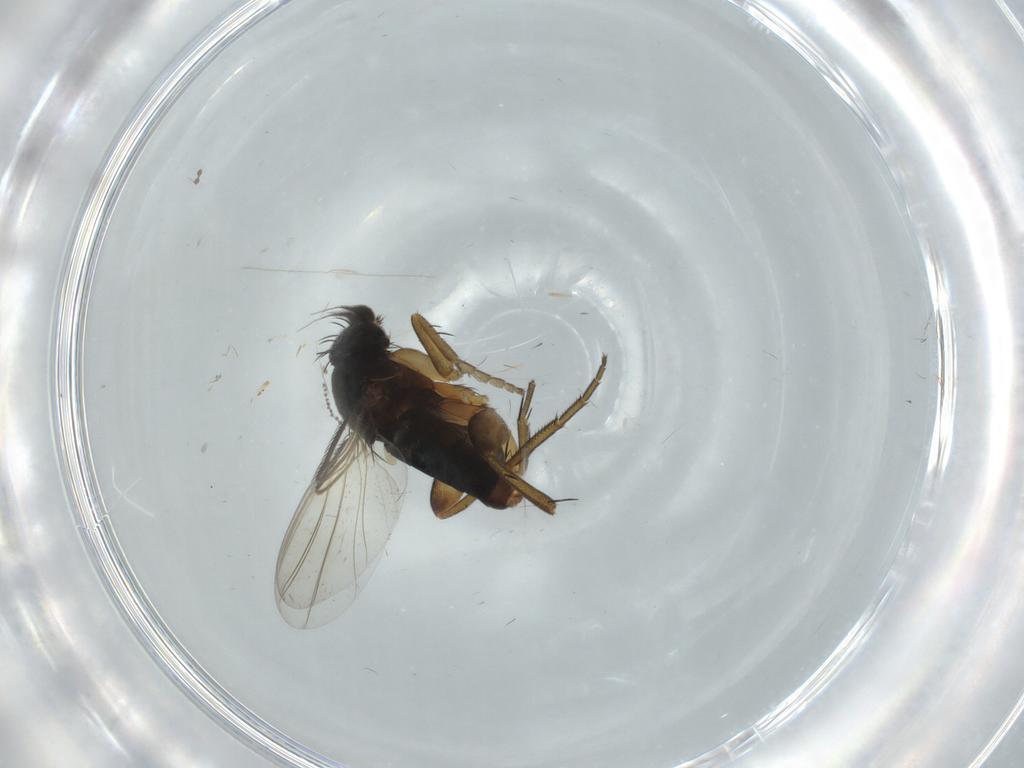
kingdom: Animalia
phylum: Arthropoda
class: Insecta
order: Diptera
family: Phoridae
